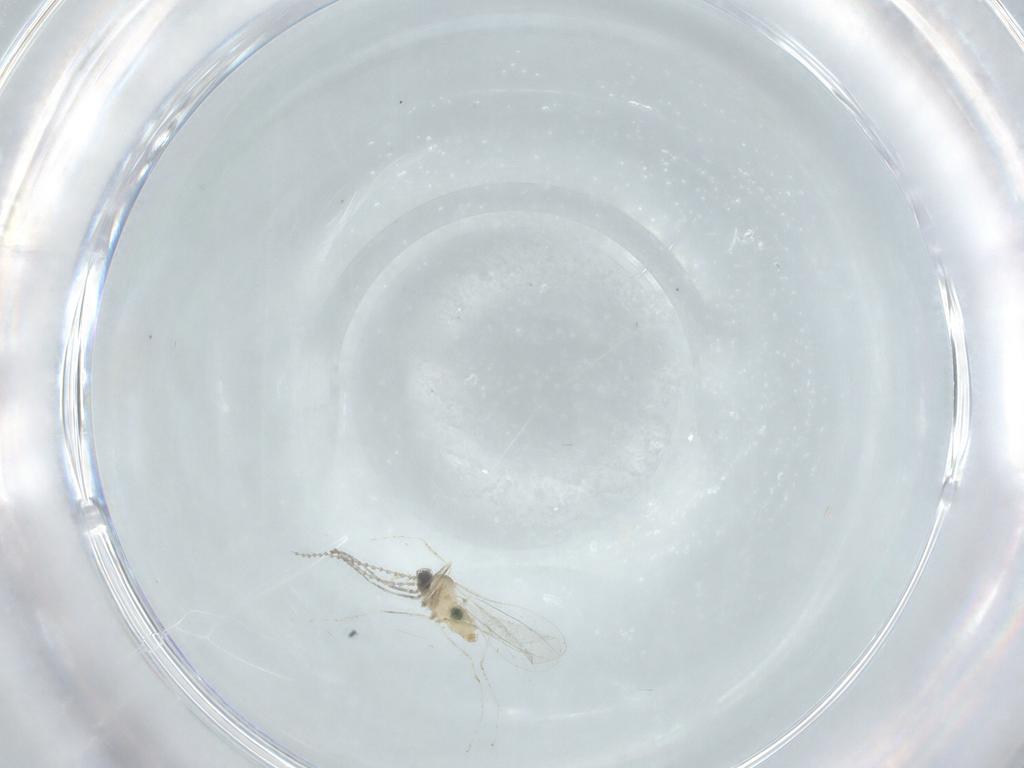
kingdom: Animalia
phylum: Arthropoda
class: Insecta
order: Diptera
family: Cecidomyiidae
